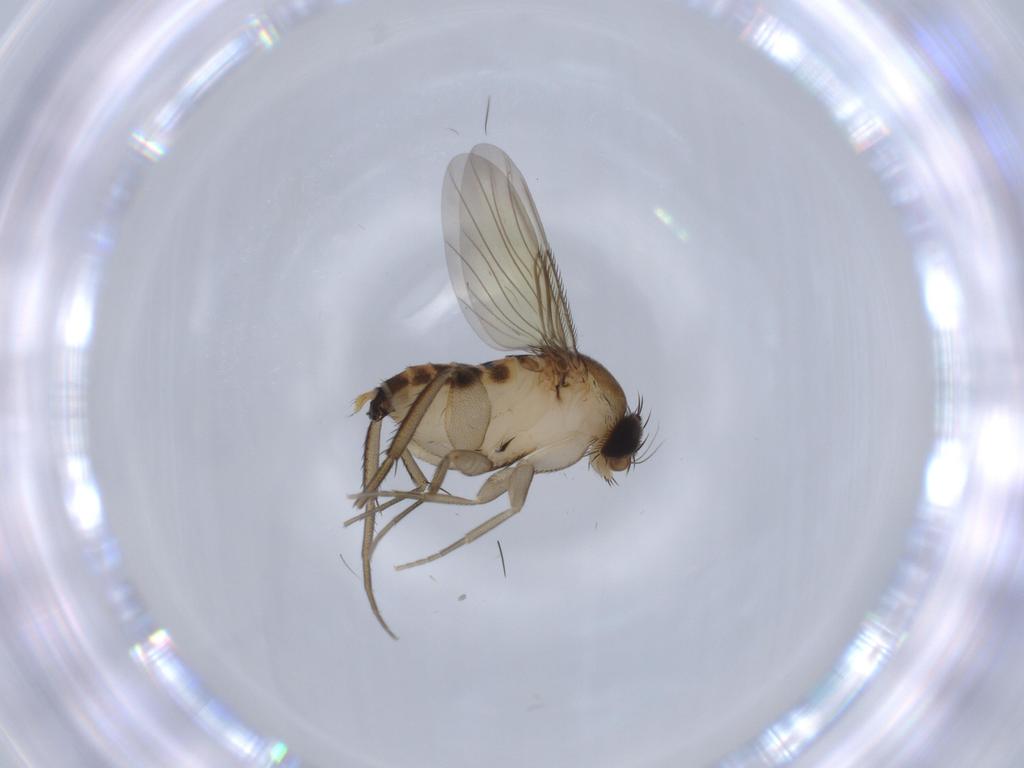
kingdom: Animalia
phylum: Arthropoda
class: Insecta
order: Diptera
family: Phoridae
